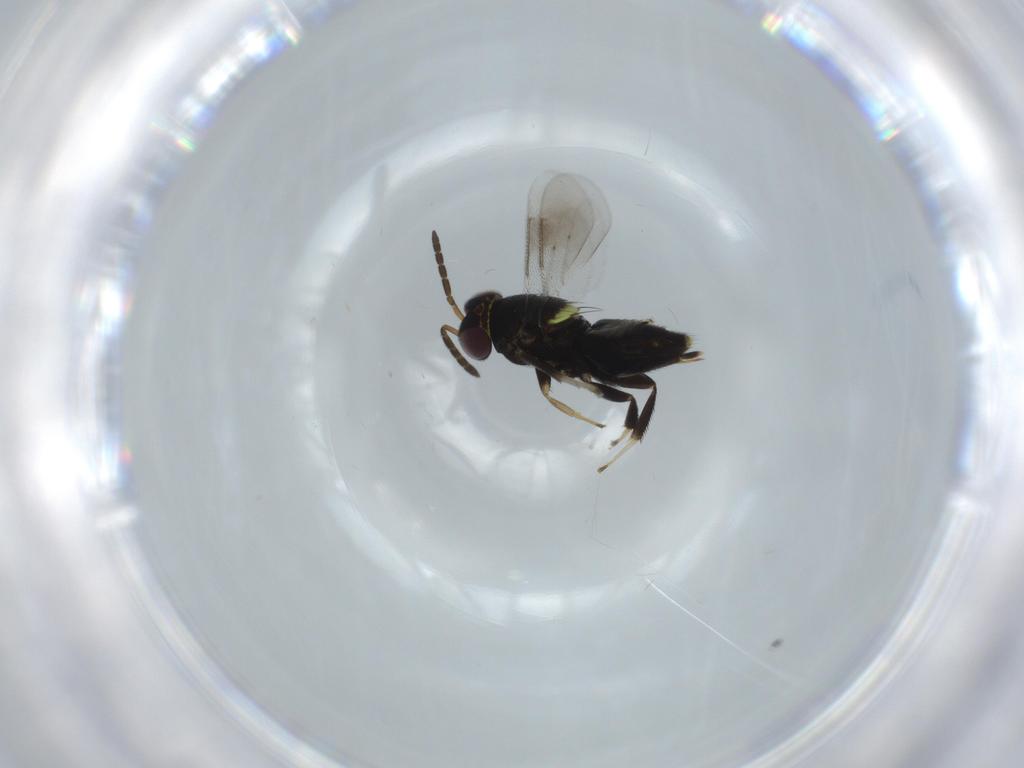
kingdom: Animalia
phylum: Arthropoda
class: Insecta
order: Hymenoptera
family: Aphelinidae
